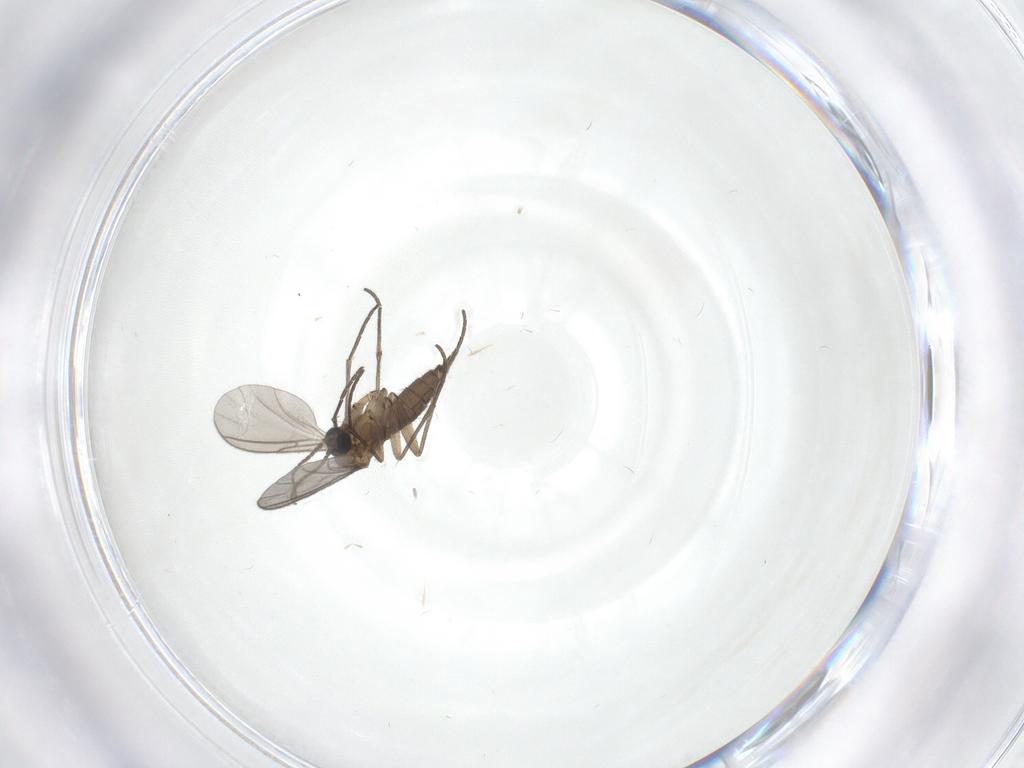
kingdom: Animalia
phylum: Arthropoda
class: Insecta
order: Diptera
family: Sciaridae
